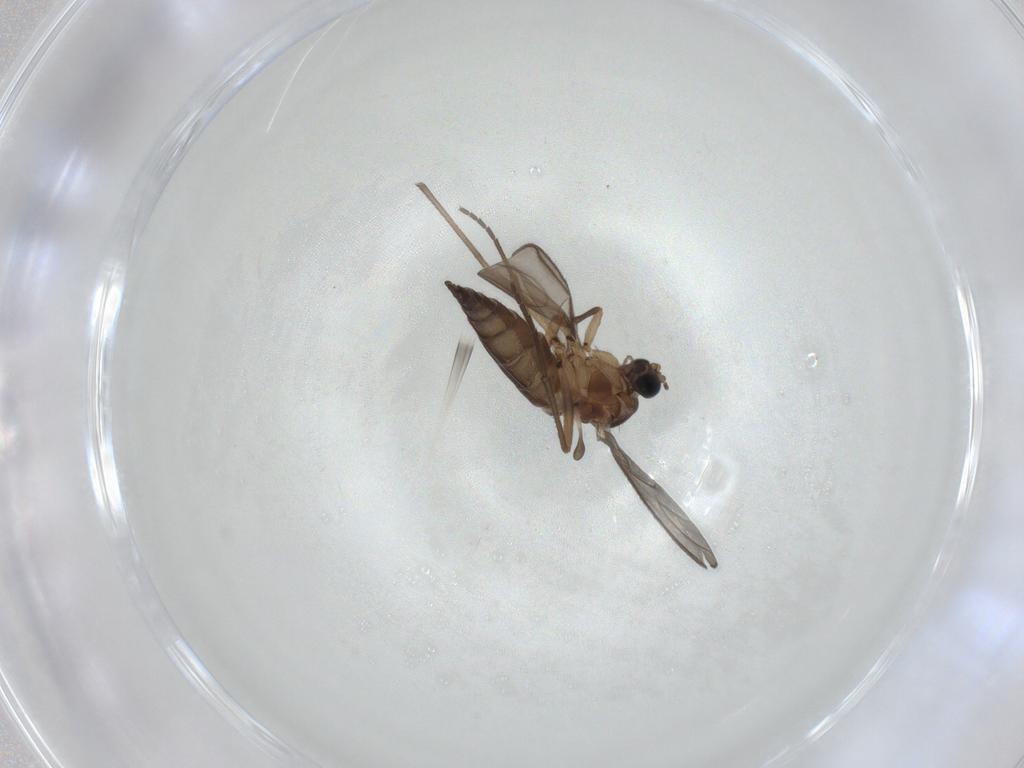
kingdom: Animalia
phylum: Arthropoda
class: Insecta
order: Diptera
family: Sciaridae
